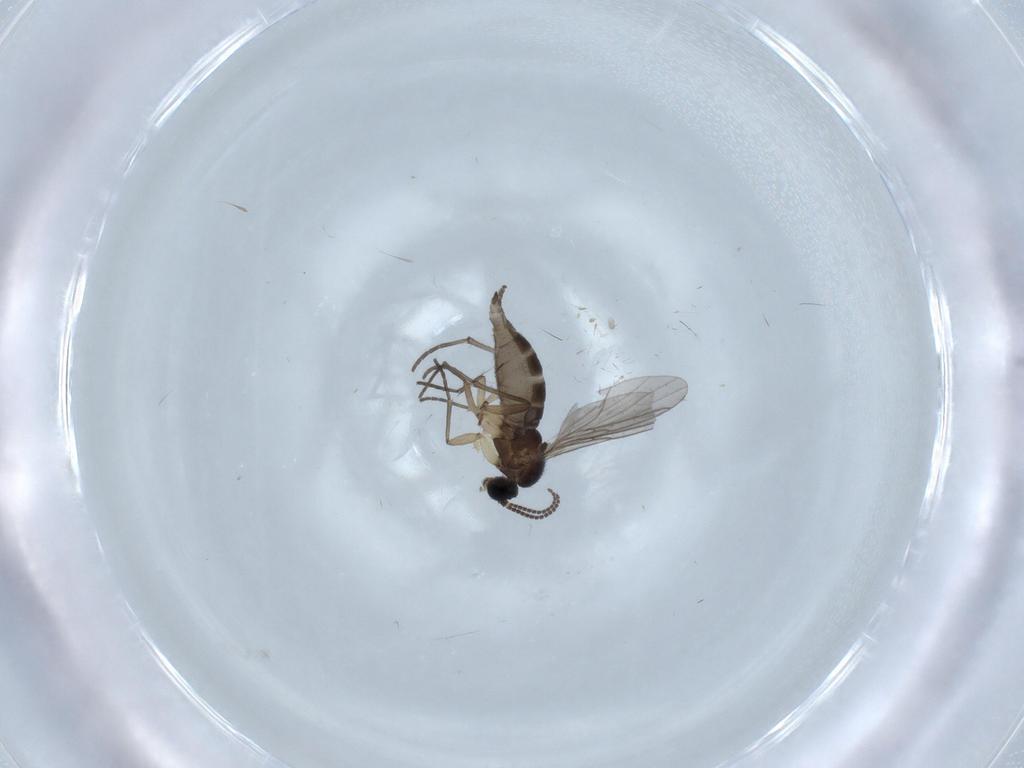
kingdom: Animalia
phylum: Arthropoda
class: Insecta
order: Diptera
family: Sciaridae
